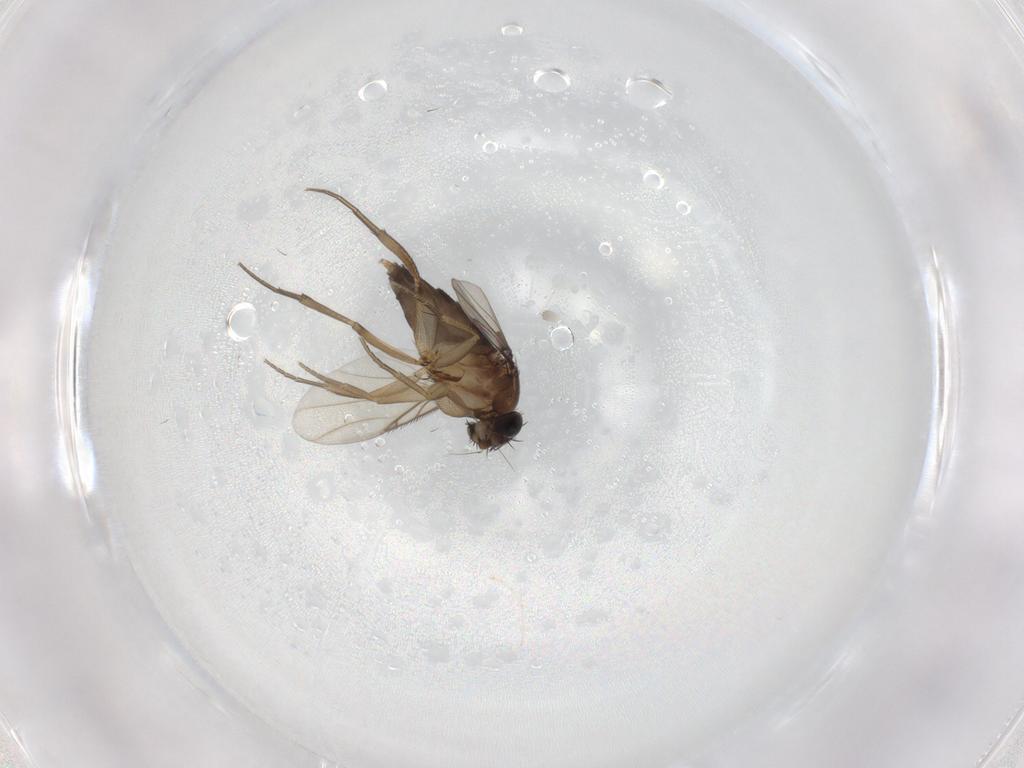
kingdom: Animalia
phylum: Arthropoda
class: Insecta
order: Diptera
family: Phoridae
